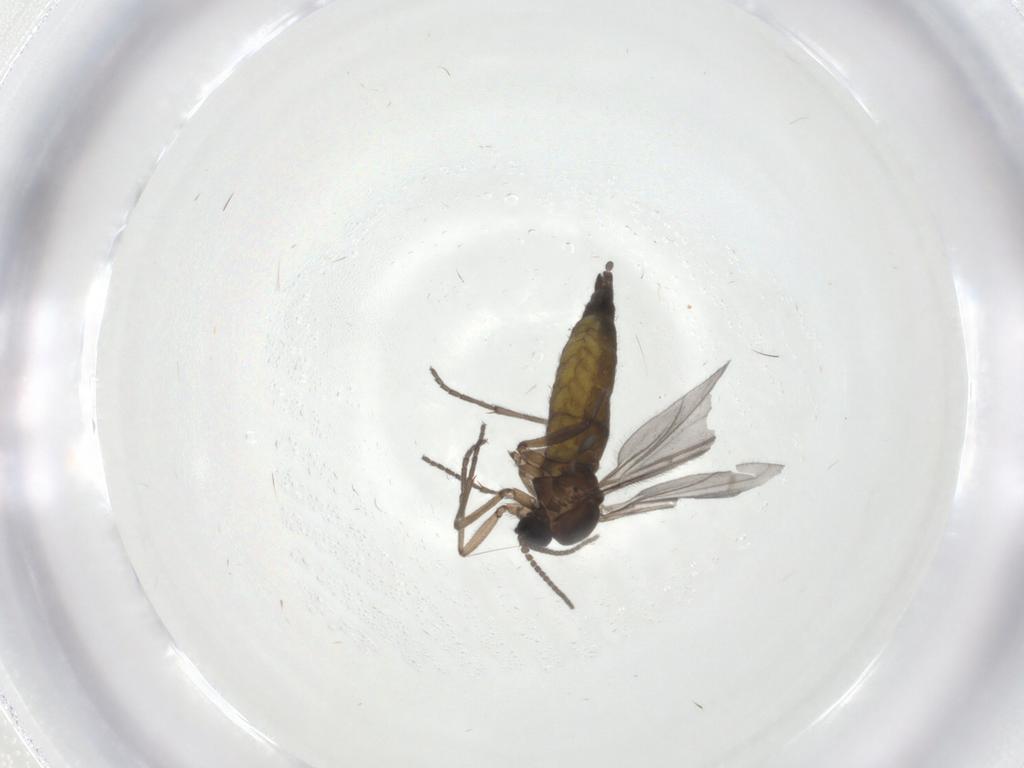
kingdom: Animalia
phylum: Arthropoda
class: Insecta
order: Diptera
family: Sciaridae
